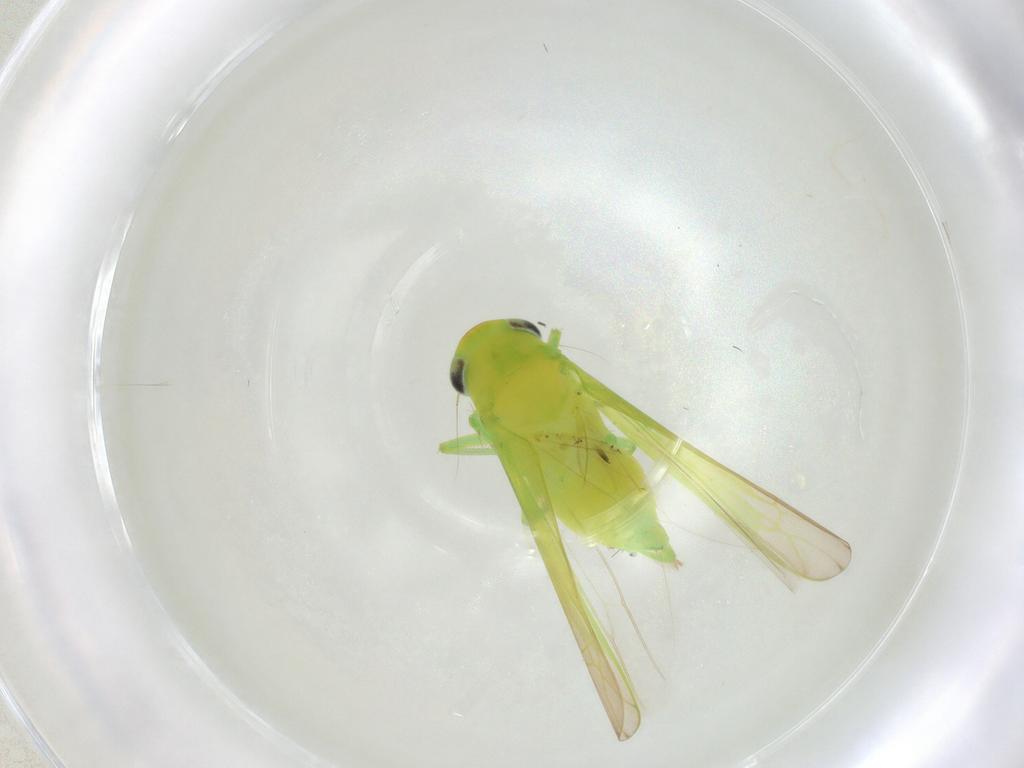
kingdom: Animalia
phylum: Arthropoda
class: Insecta
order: Hemiptera
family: Cicadellidae
